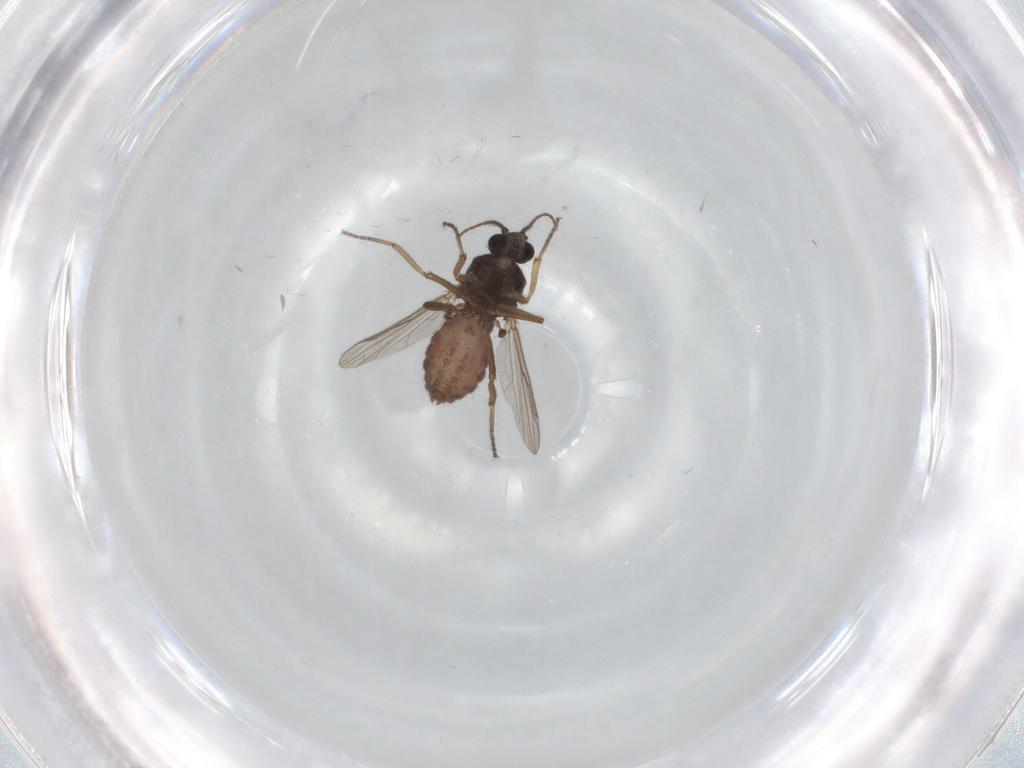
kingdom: Animalia
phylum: Arthropoda
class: Insecta
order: Diptera
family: Ceratopogonidae
